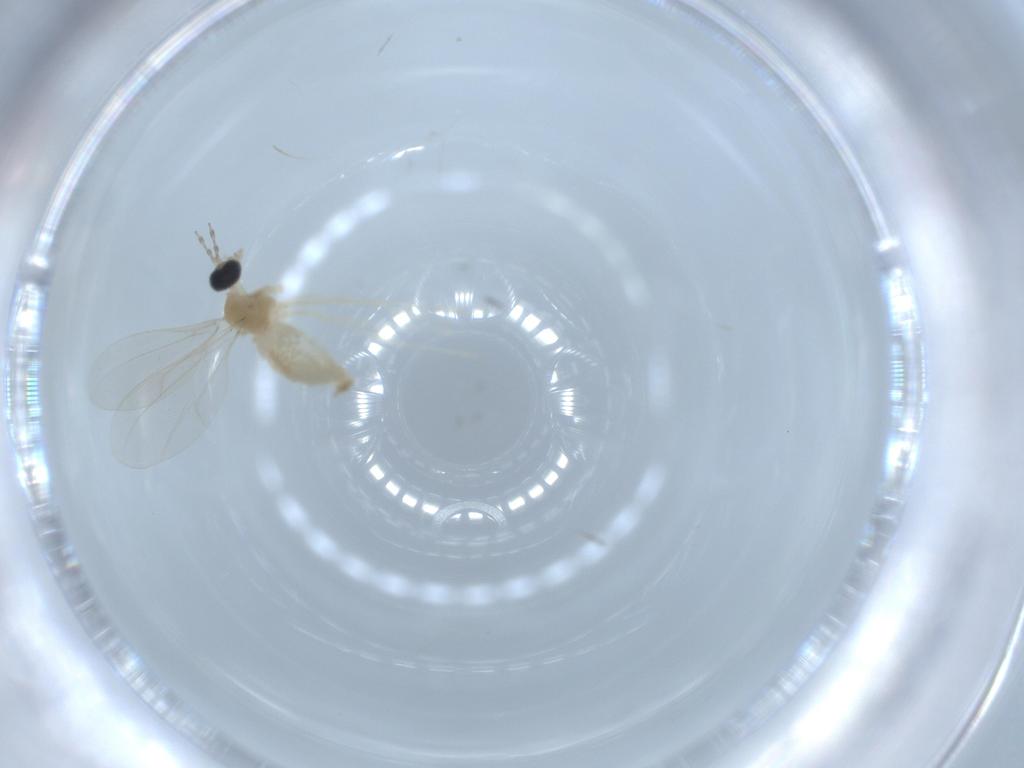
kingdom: Animalia
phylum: Arthropoda
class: Insecta
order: Diptera
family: Cecidomyiidae
